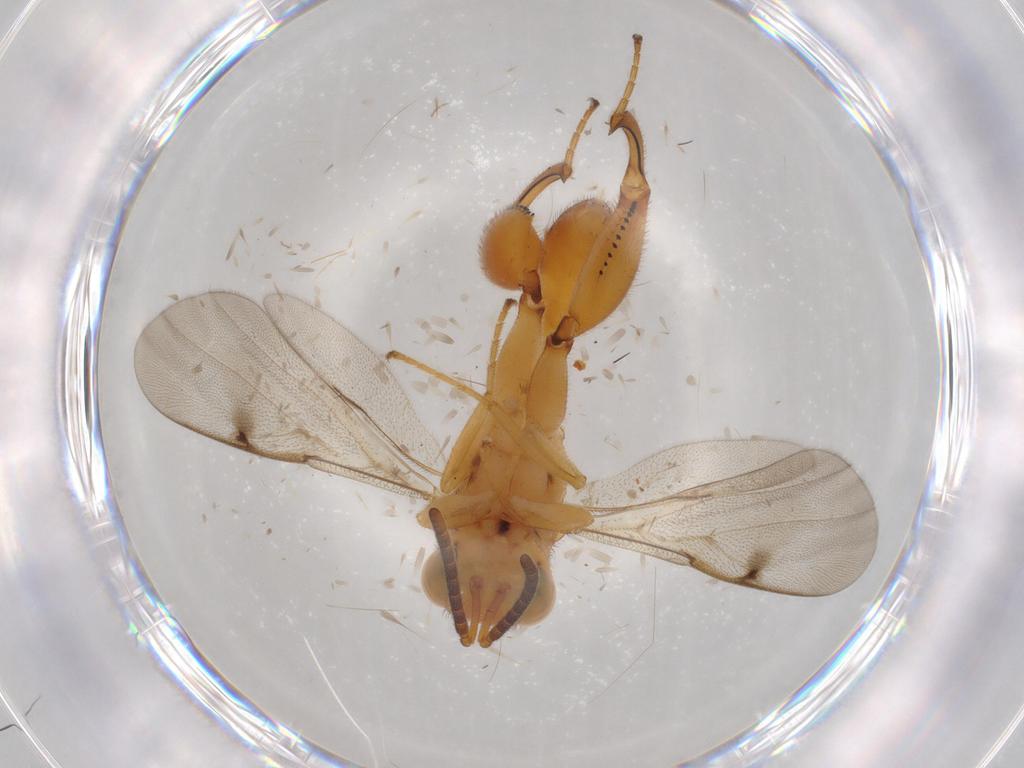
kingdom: Animalia
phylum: Arthropoda
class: Insecta
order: Hymenoptera
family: Chalcididae
